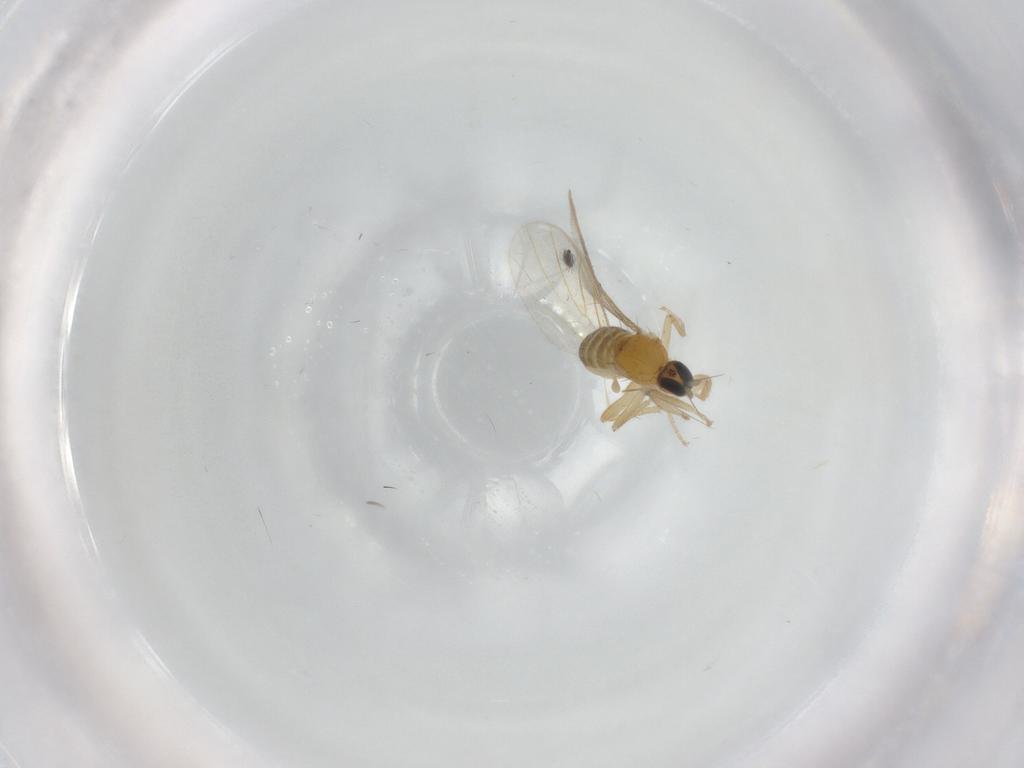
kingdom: Animalia
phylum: Arthropoda
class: Insecta
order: Diptera
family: Hybotidae
